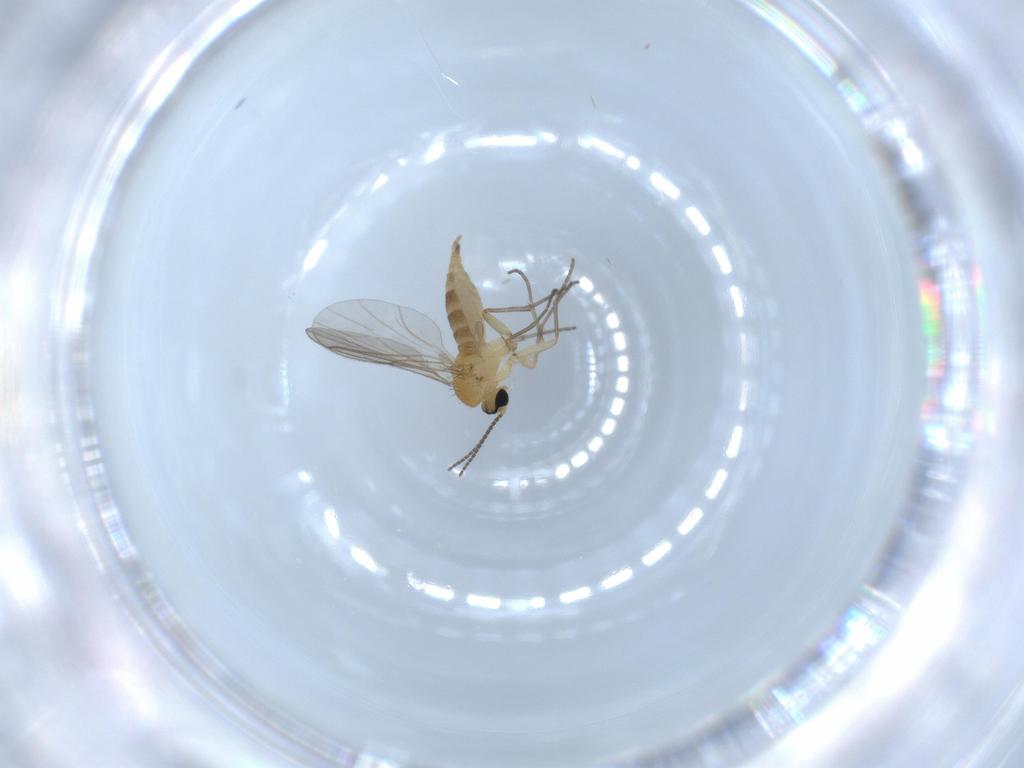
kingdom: Animalia
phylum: Arthropoda
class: Insecta
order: Diptera
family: Sciaridae
